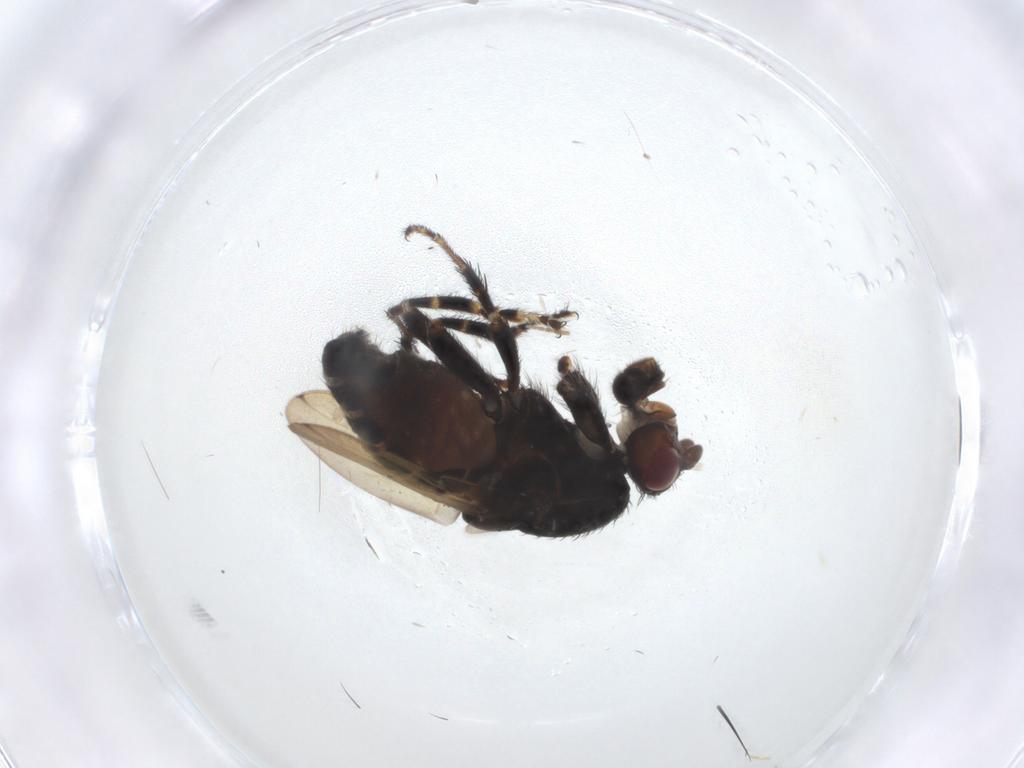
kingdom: Animalia
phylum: Arthropoda
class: Insecta
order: Diptera
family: Sphaeroceridae
